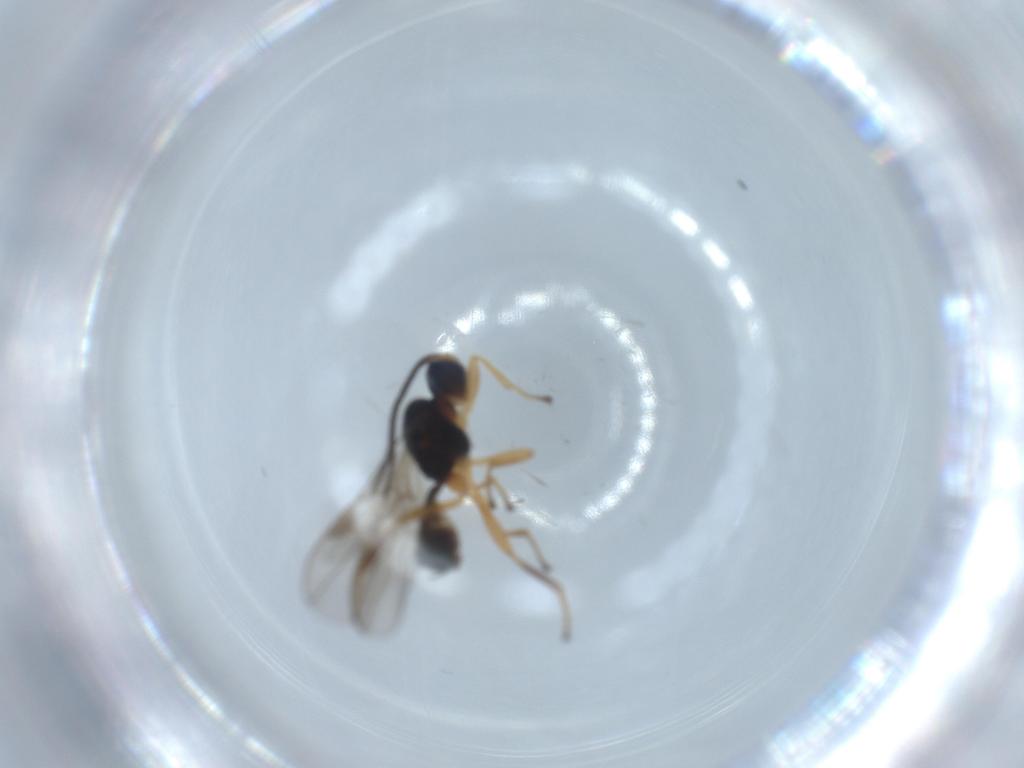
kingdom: Animalia
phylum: Arthropoda
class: Insecta
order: Hymenoptera
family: Braconidae
